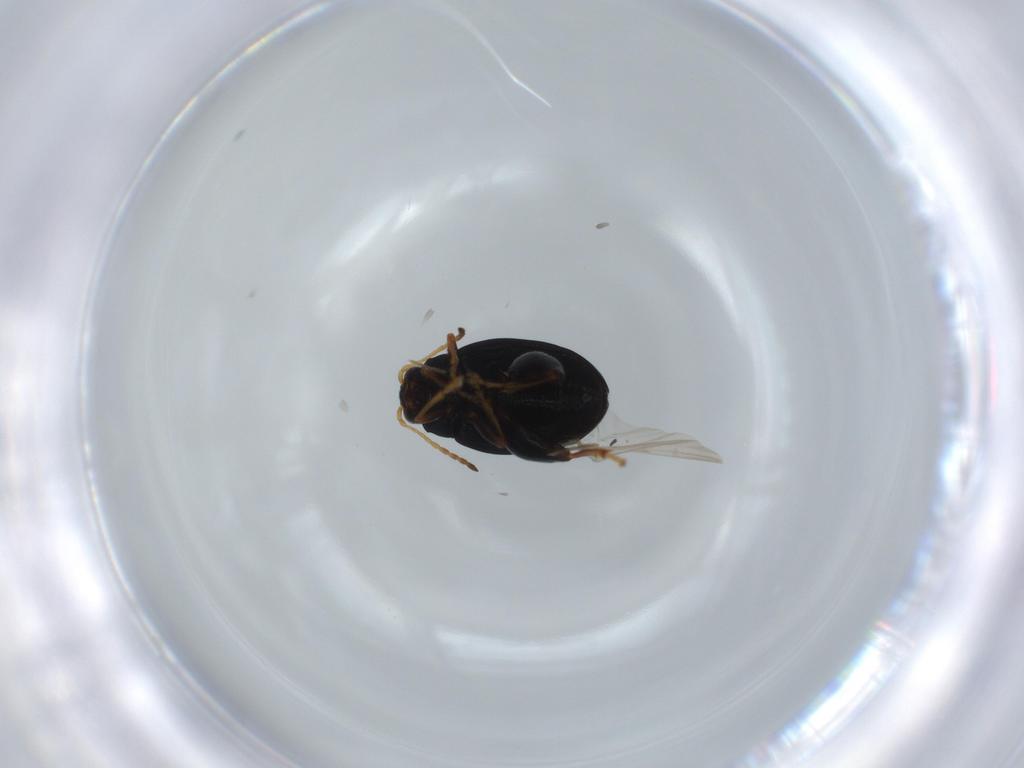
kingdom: Animalia
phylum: Arthropoda
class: Insecta
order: Coleoptera
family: Chrysomelidae
